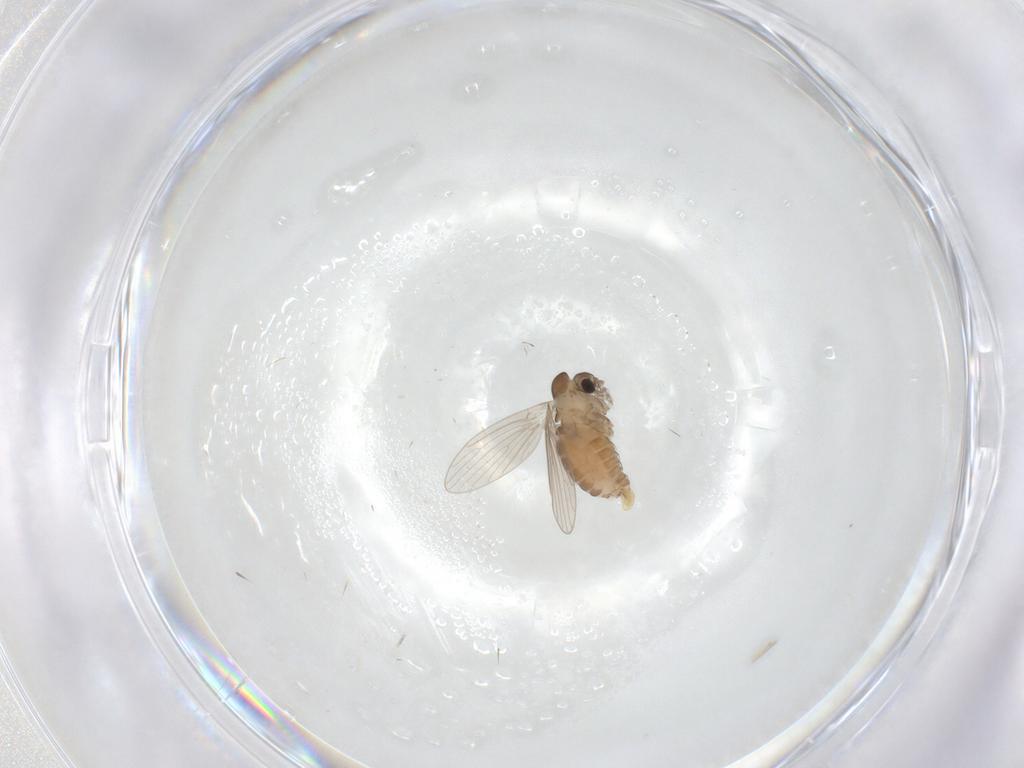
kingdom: Animalia
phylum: Arthropoda
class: Insecta
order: Diptera
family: Psychodidae
